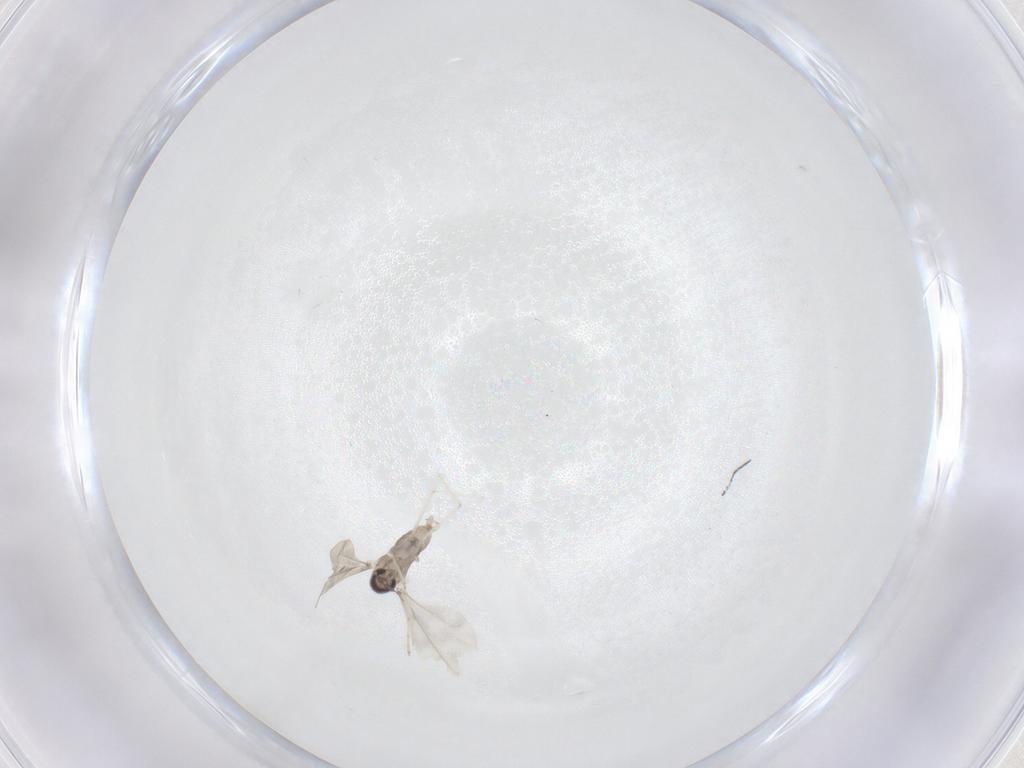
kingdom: Animalia
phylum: Arthropoda
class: Insecta
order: Diptera
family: Cecidomyiidae
